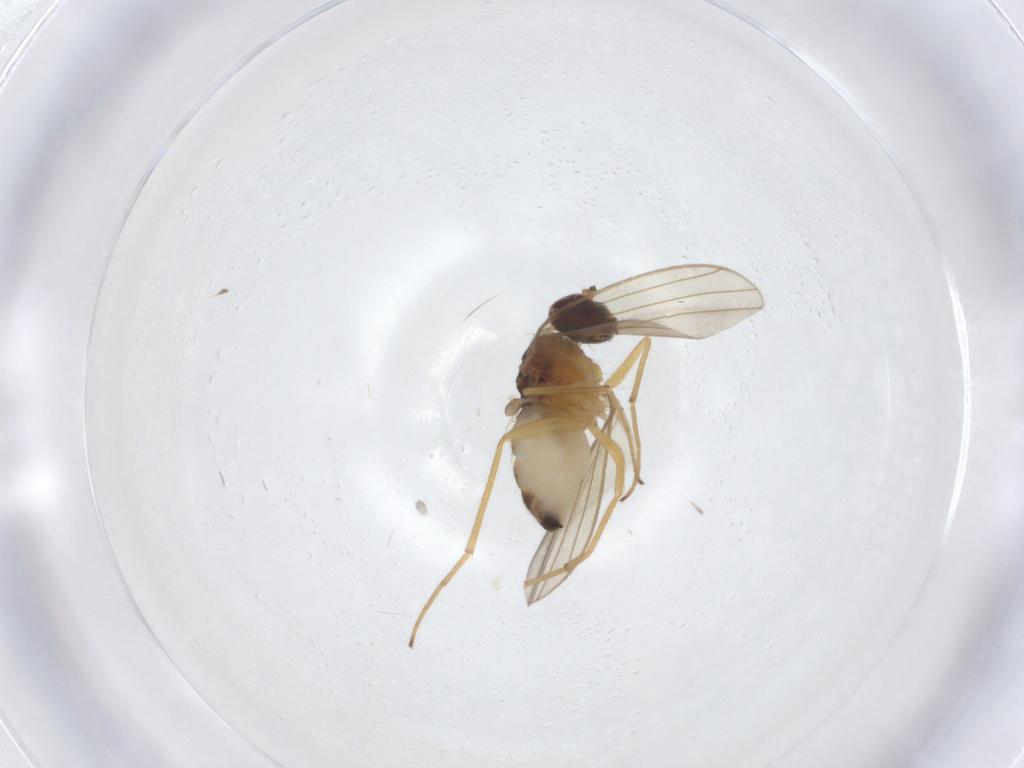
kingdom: Animalia
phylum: Arthropoda
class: Insecta
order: Diptera
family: Dolichopodidae
